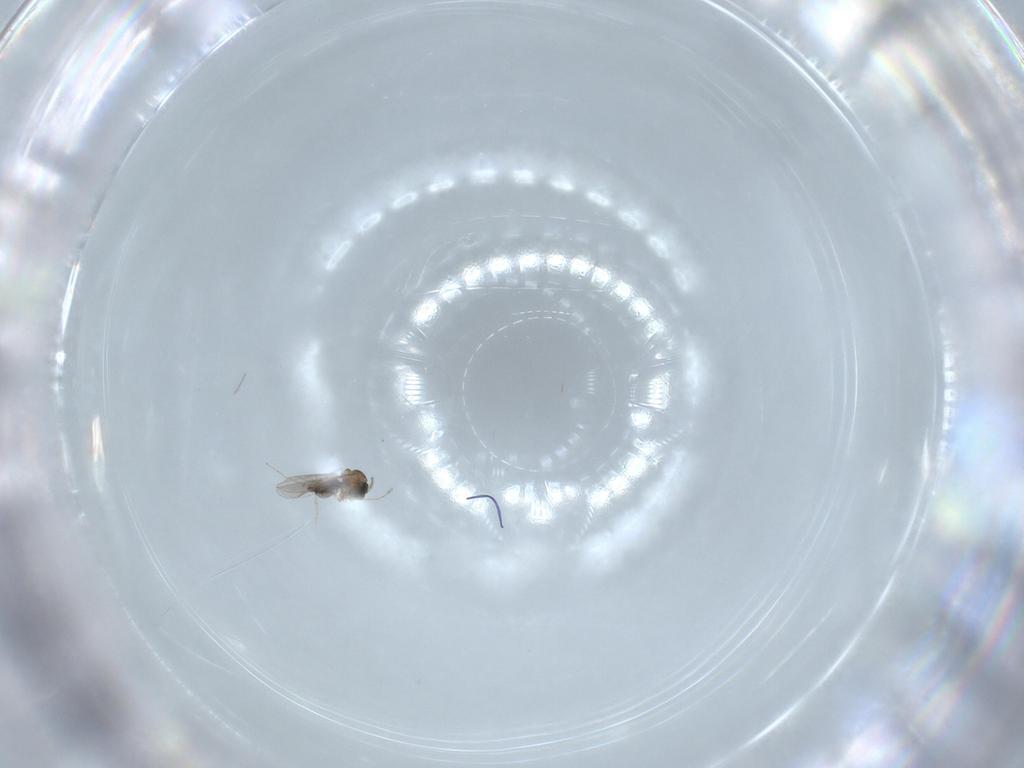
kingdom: Animalia
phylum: Arthropoda
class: Insecta
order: Diptera
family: Cecidomyiidae
